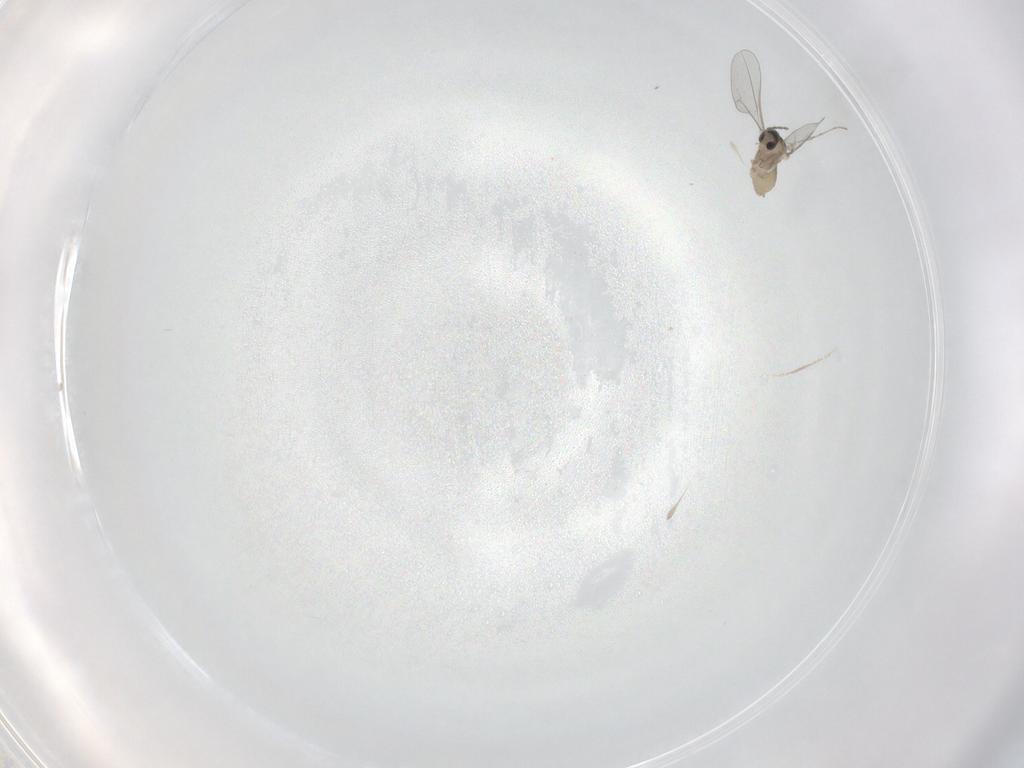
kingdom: Animalia
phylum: Arthropoda
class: Insecta
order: Diptera
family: Cecidomyiidae
